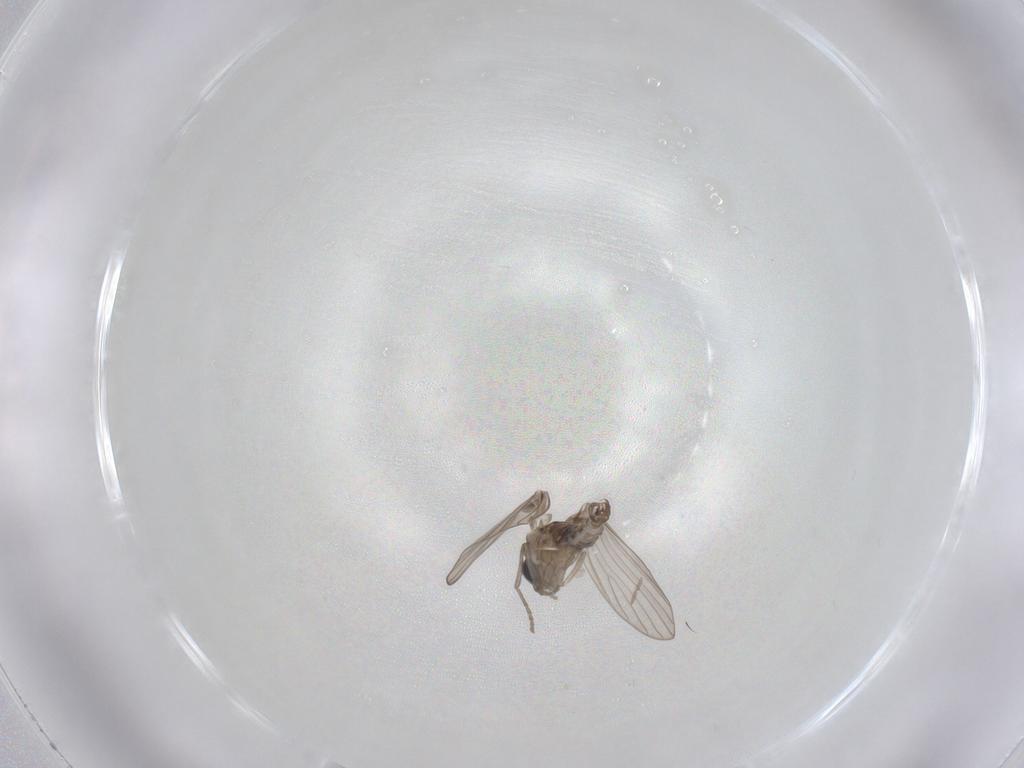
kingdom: Animalia
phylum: Arthropoda
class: Insecta
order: Diptera
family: Psychodidae
